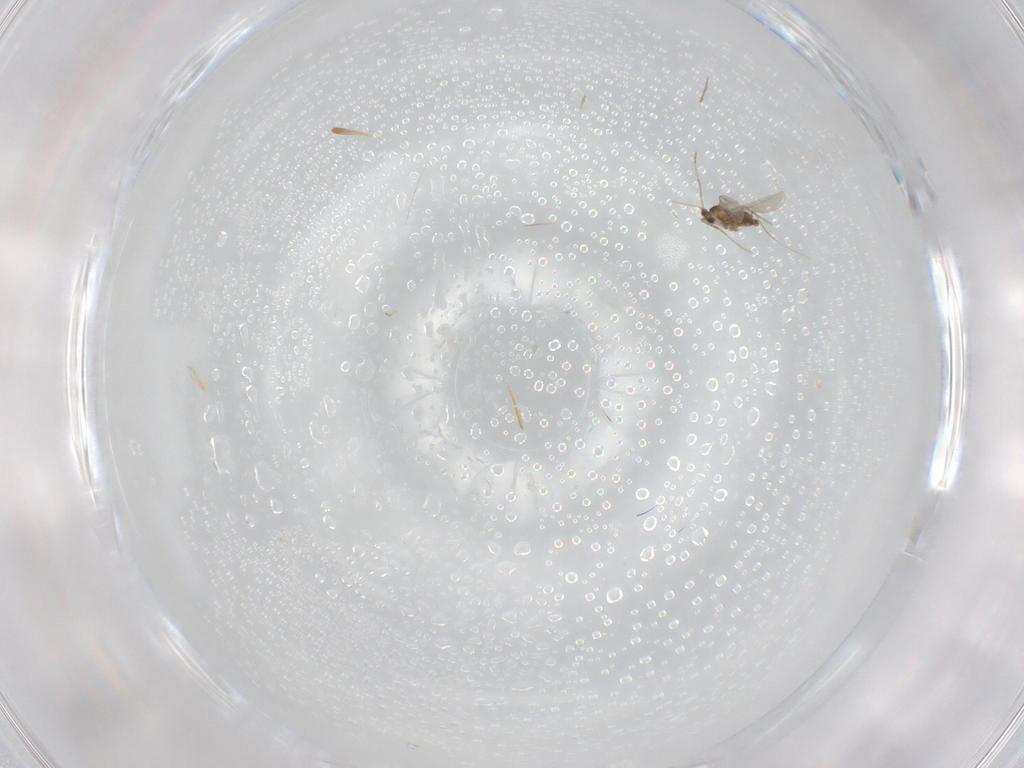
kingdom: Animalia
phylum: Arthropoda
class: Insecta
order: Diptera
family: Cecidomyiidae
